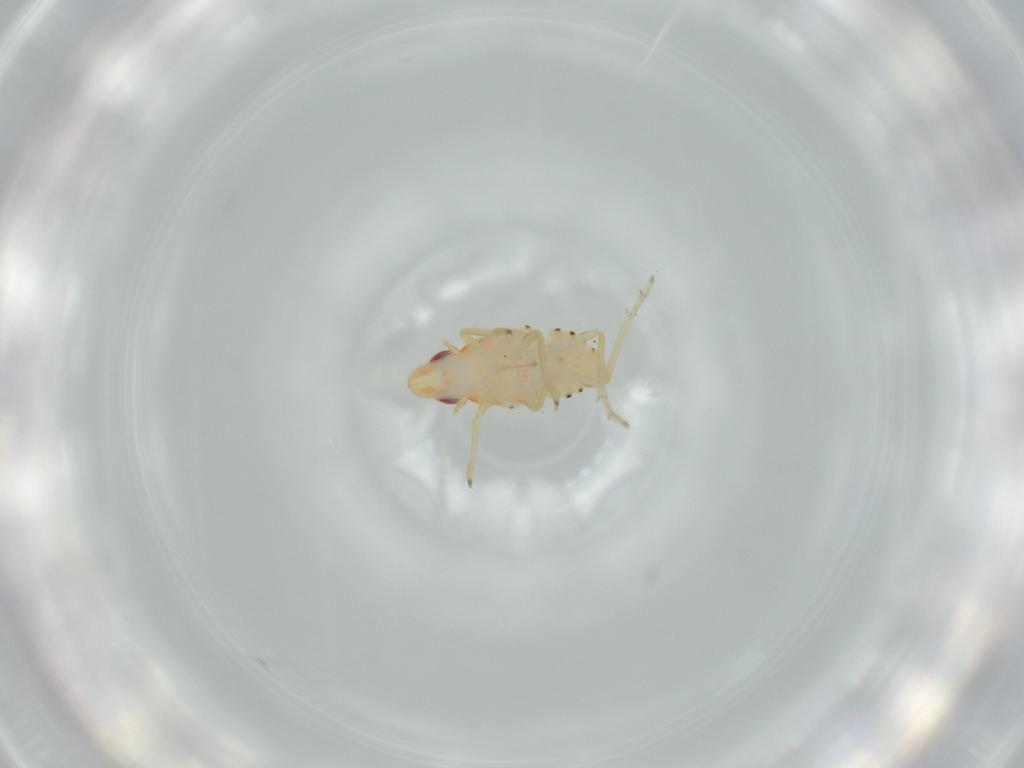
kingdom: Animalia
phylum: Arthropoda
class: Insecta
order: Hemiptera
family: Tropiduchidae
